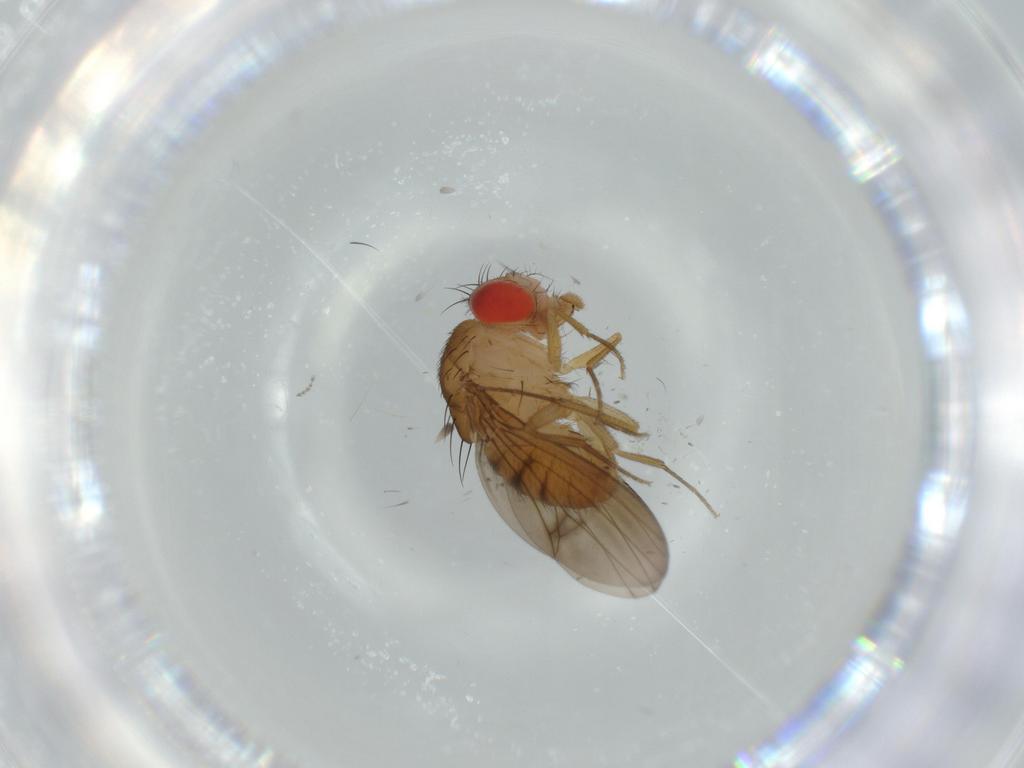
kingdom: Animalia
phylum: Arthropoda
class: Insecta
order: Diptera
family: Drosophilidae
